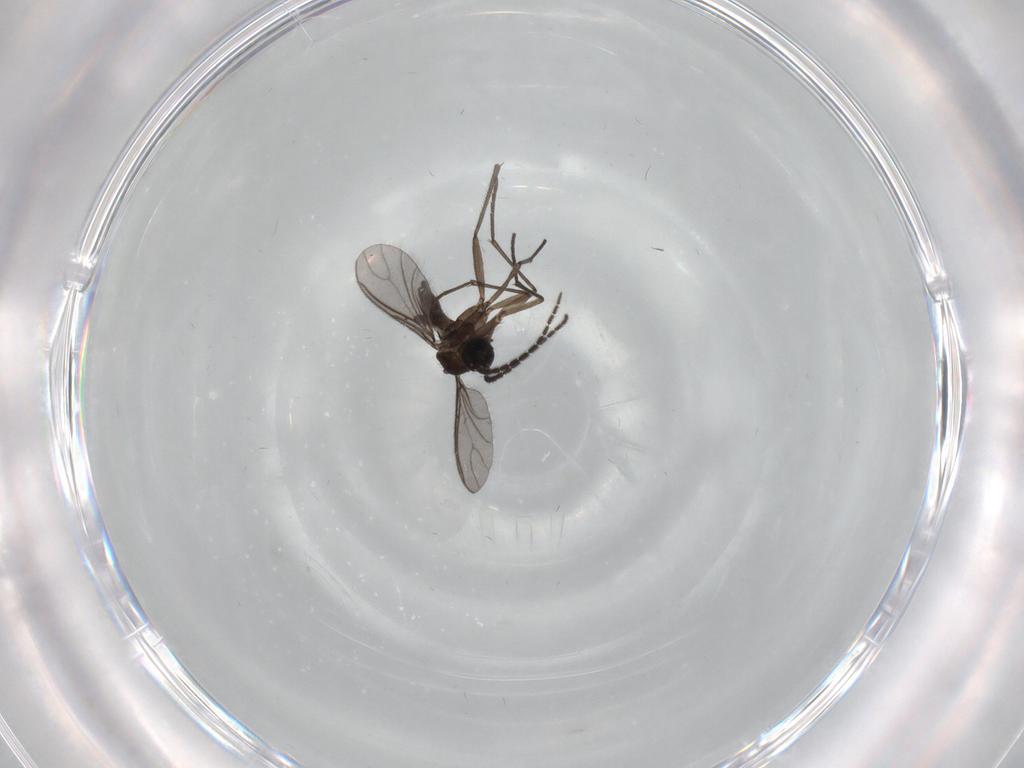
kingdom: Animalia
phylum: Arthropoda
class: Insecta
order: Diptera
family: Sciaridae
